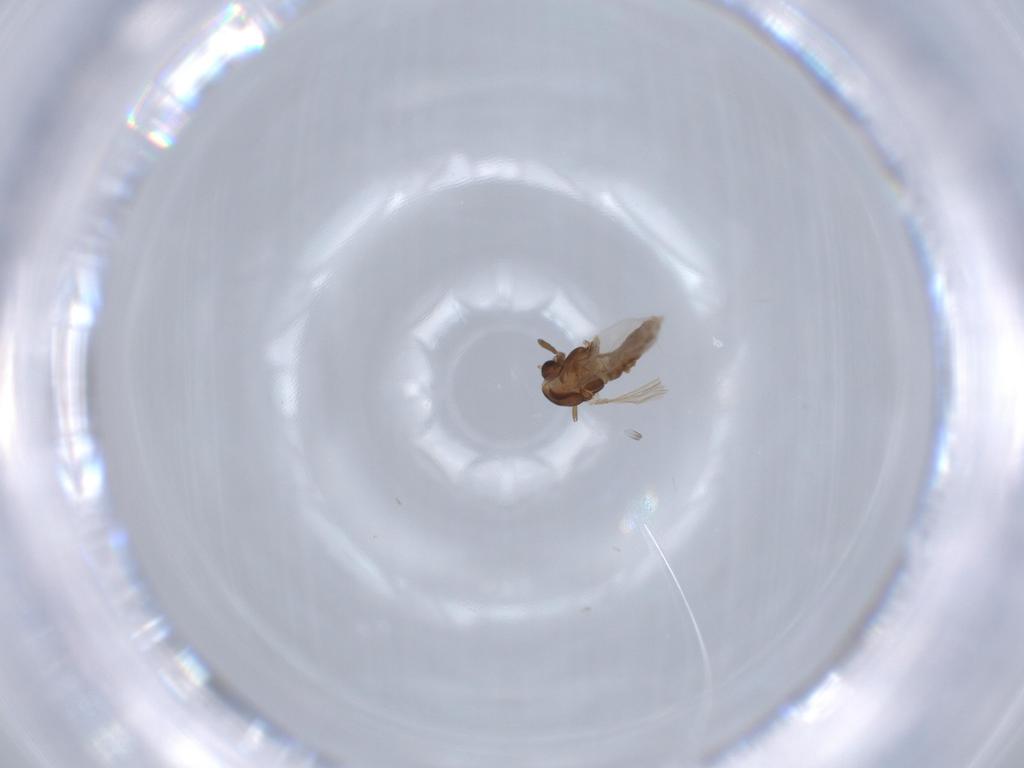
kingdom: Animalia
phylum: Arthropoda
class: Insecta
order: Diptera
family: Chironomidae
